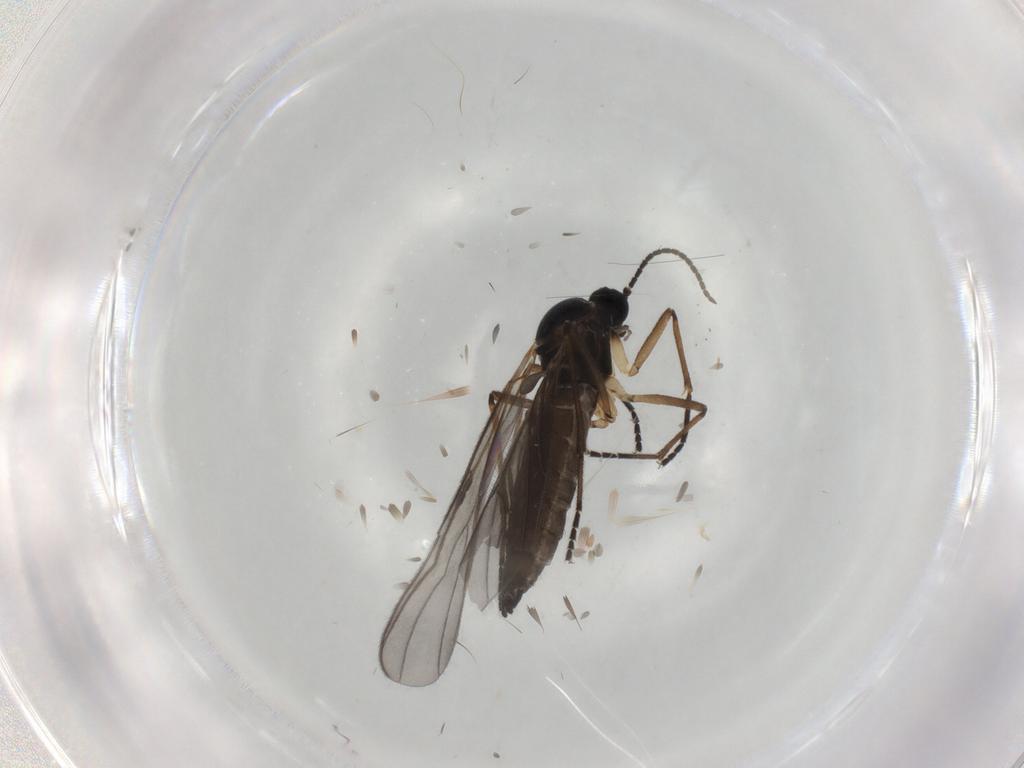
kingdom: Animalia
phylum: Arthropoda
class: Insecta
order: Diptera
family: Sciaridae
